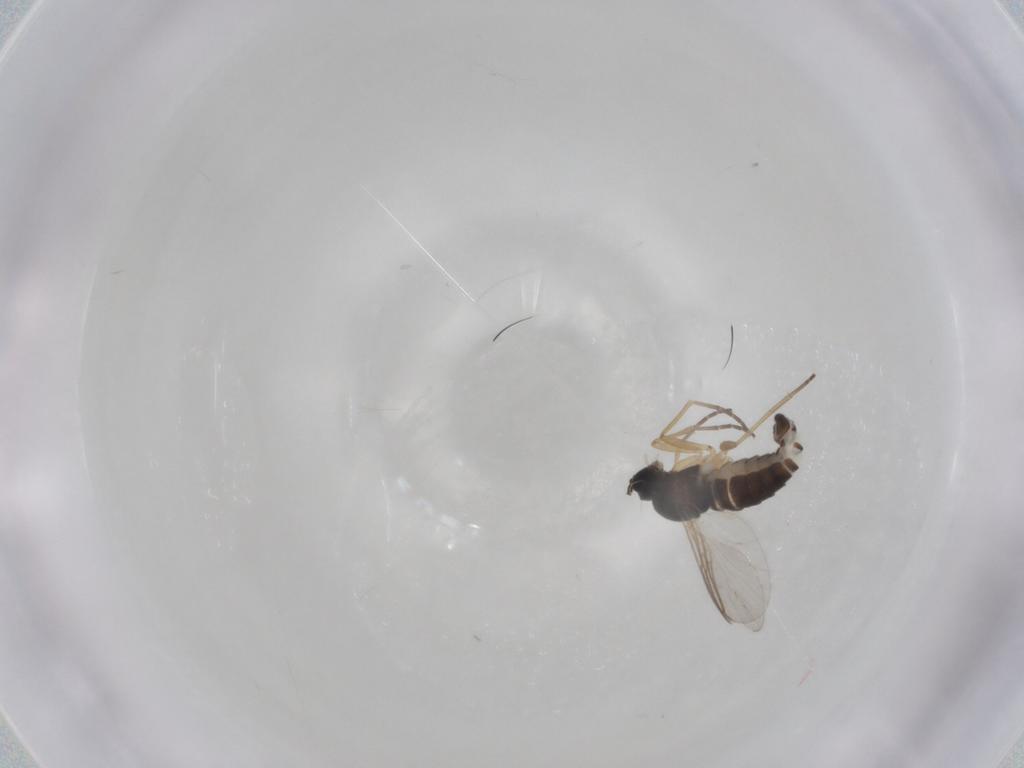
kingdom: Animalia
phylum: Arthropoda
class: Insecta
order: Diptera
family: Sciaridae
